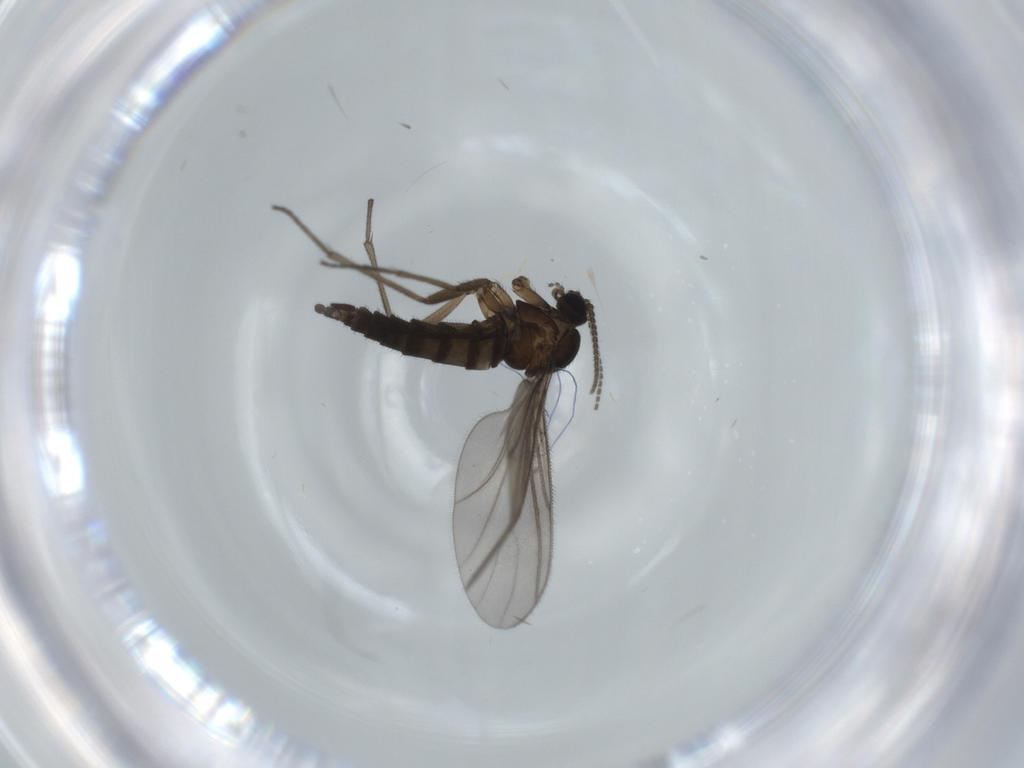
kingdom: Animalia
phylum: Arthropoda
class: Insecta
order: Diptera
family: Sciaridae
